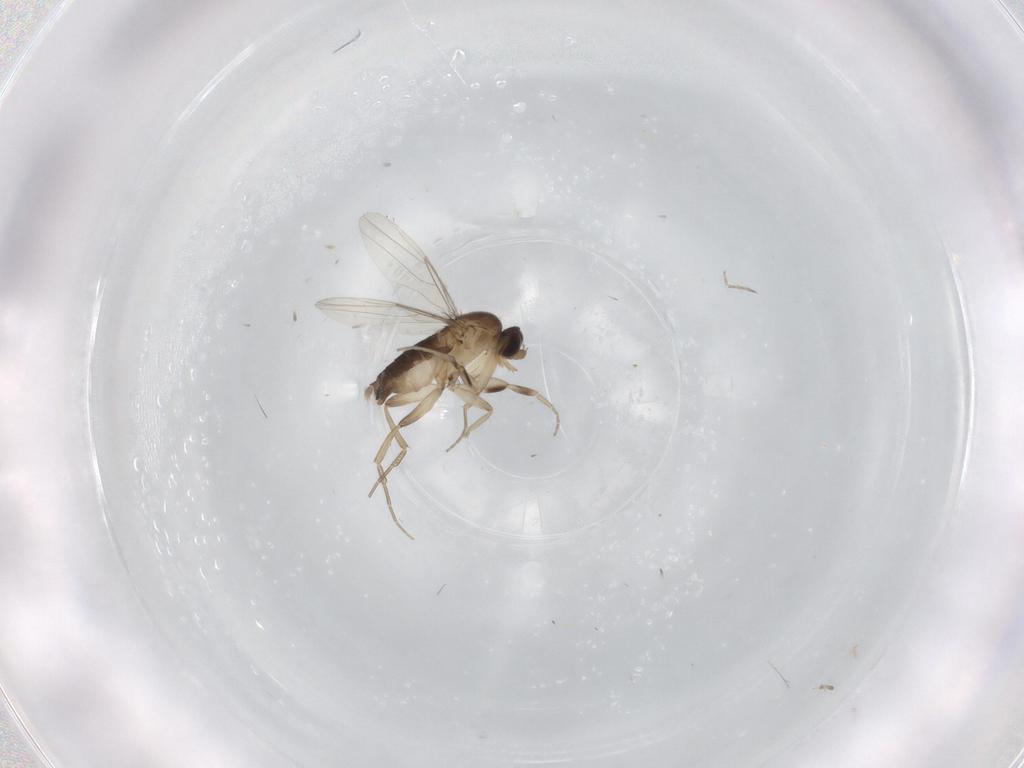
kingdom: Animalia
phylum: Arthropoda
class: Insecta
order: Diptera
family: Phoridae
